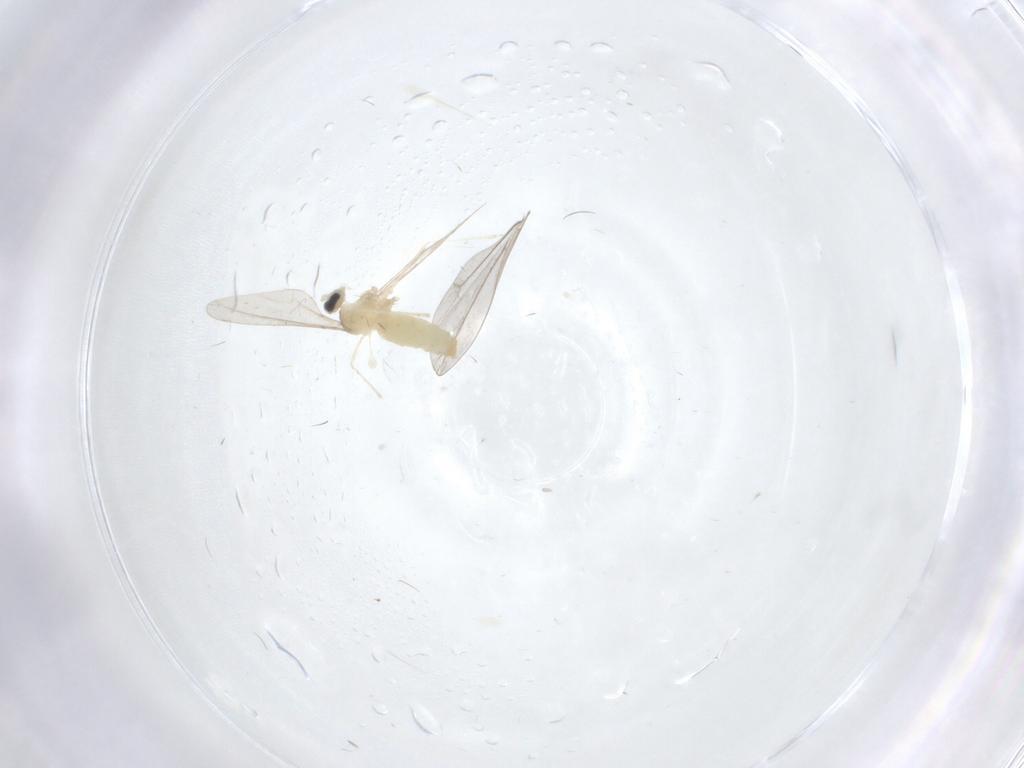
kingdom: Animalia
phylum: Arthropoda
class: Insecta
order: Diptera
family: Cecidomyiidae
